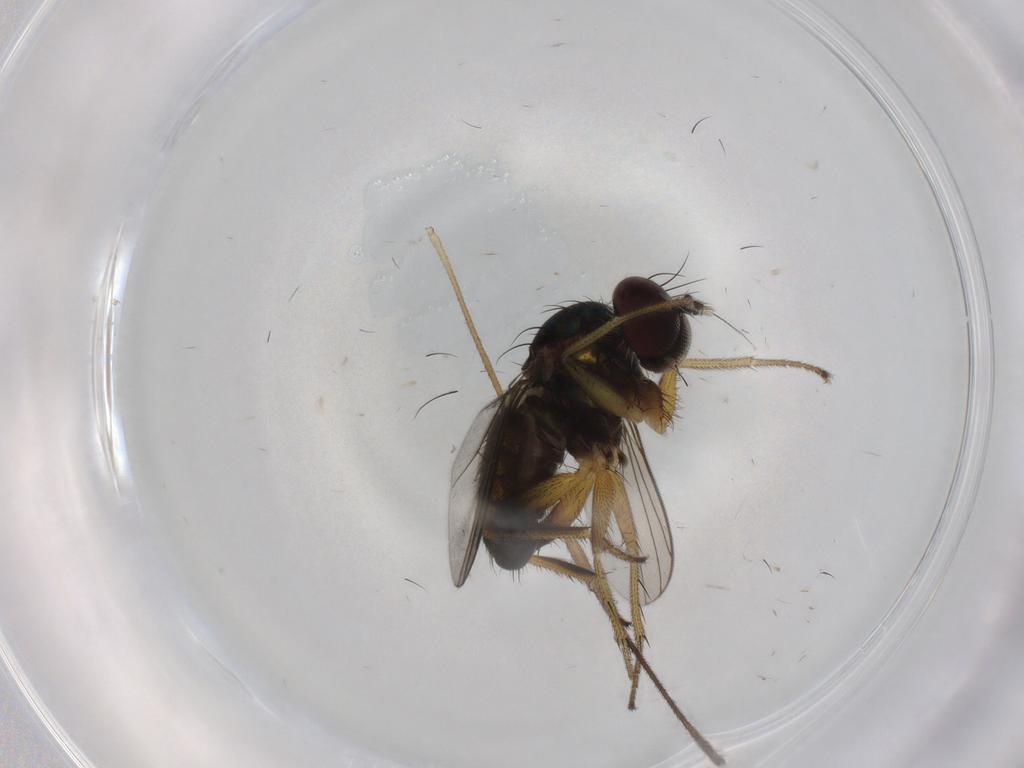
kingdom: Animalia
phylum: Arthropoda
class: Insecta
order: Diptera
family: Dolichopodidae
